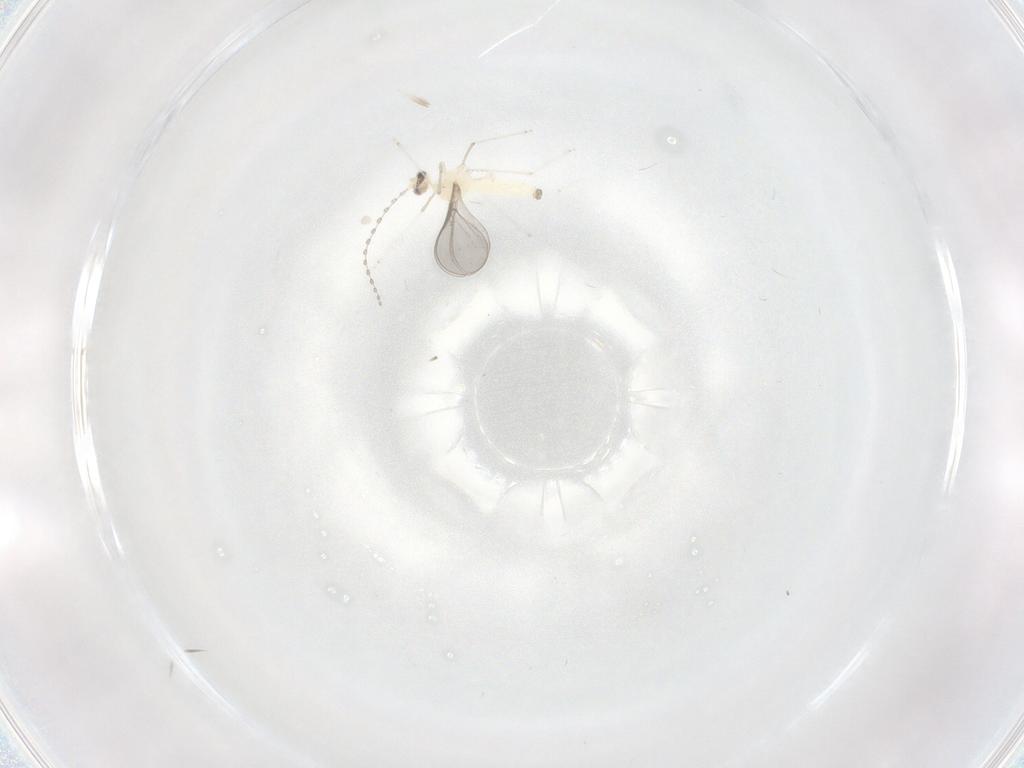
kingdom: Animalia
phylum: Arthropoda
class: Insecta
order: Diptera
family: Cecidomyiidae
